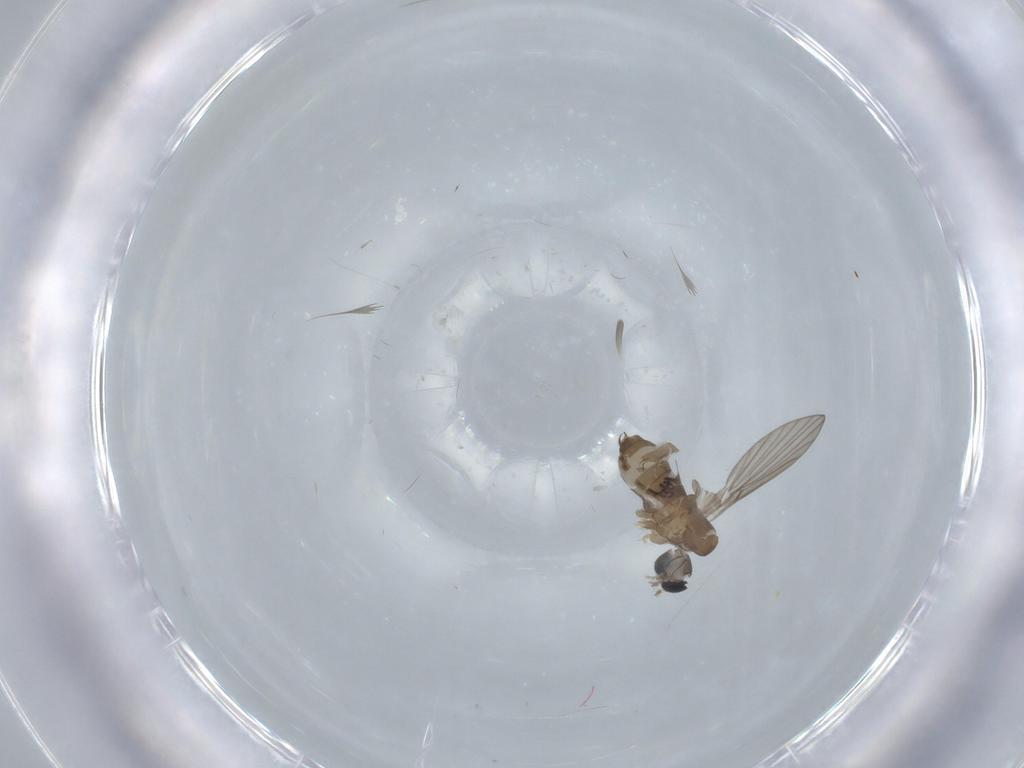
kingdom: Animalia
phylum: Arthropoda
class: Insecta
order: Diptera
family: Psychodidae
